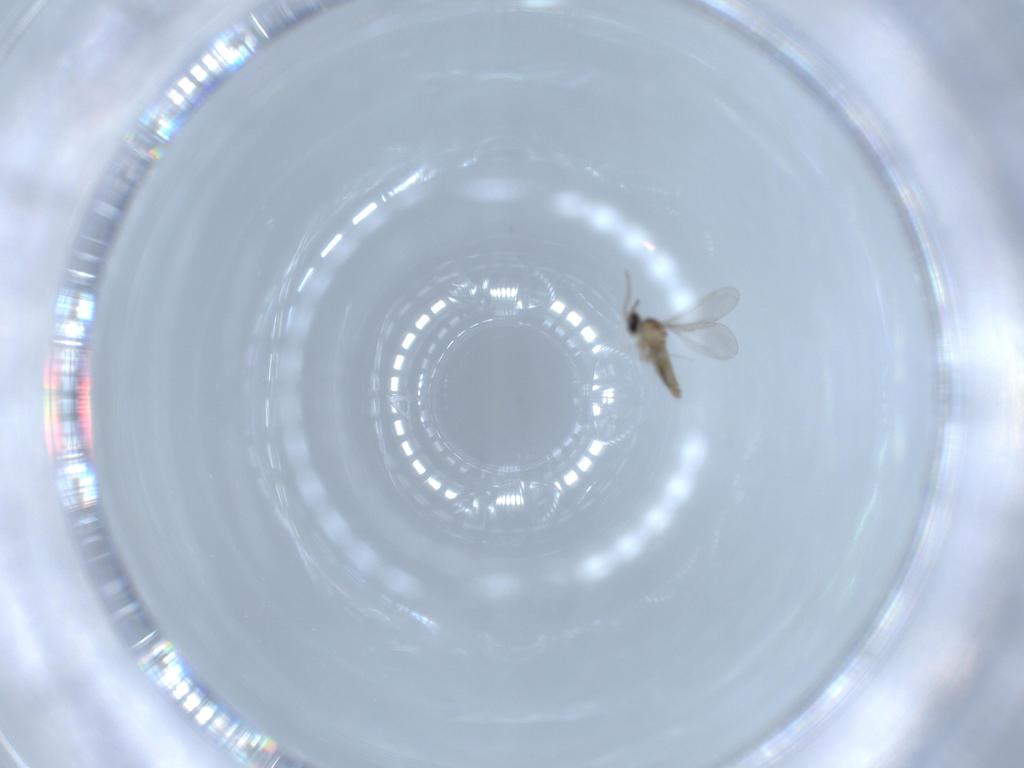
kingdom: Animalia
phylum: Arthropoda
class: Insecta
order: Diptera
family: Cecidomyiidae
